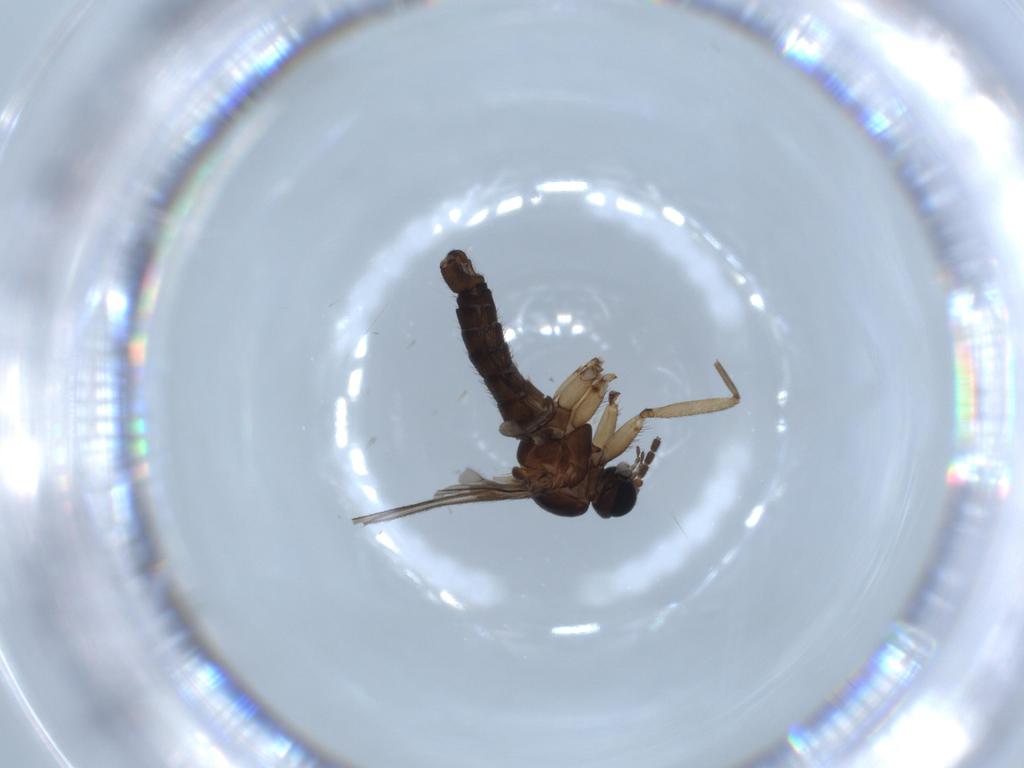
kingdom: Animalia
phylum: Arthropoda
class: Insecta
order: Diptera
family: Sciaridae
